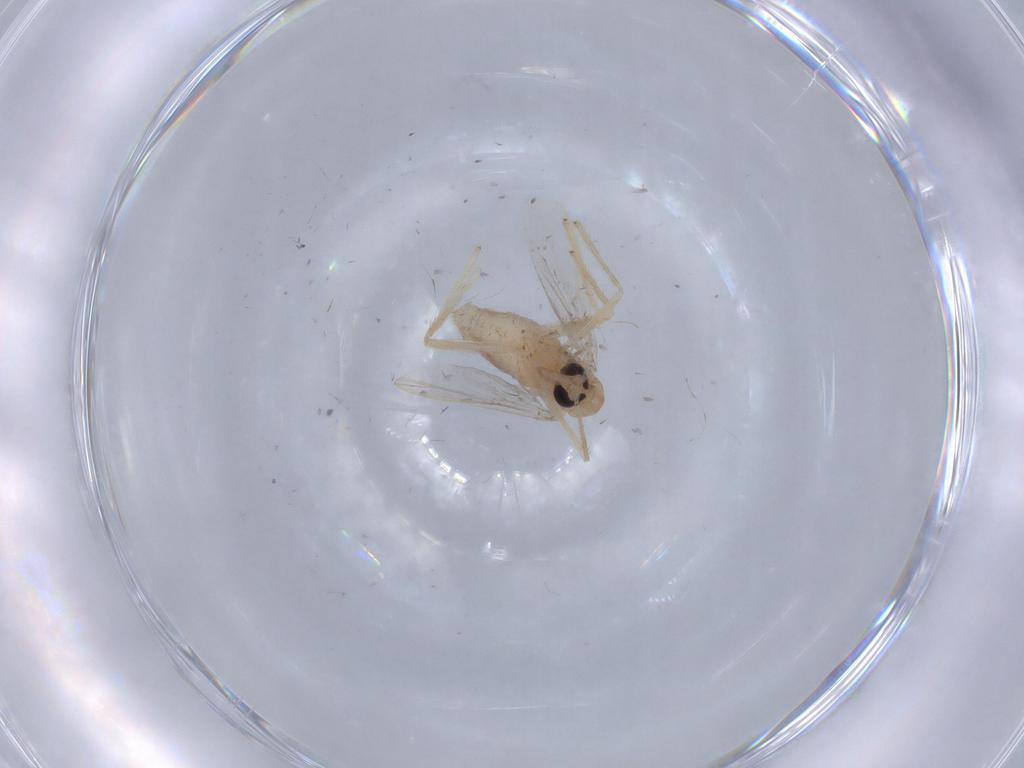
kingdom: Animalia
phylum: Arthropoda
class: Insecta
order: Diptera
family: Chironomidae
